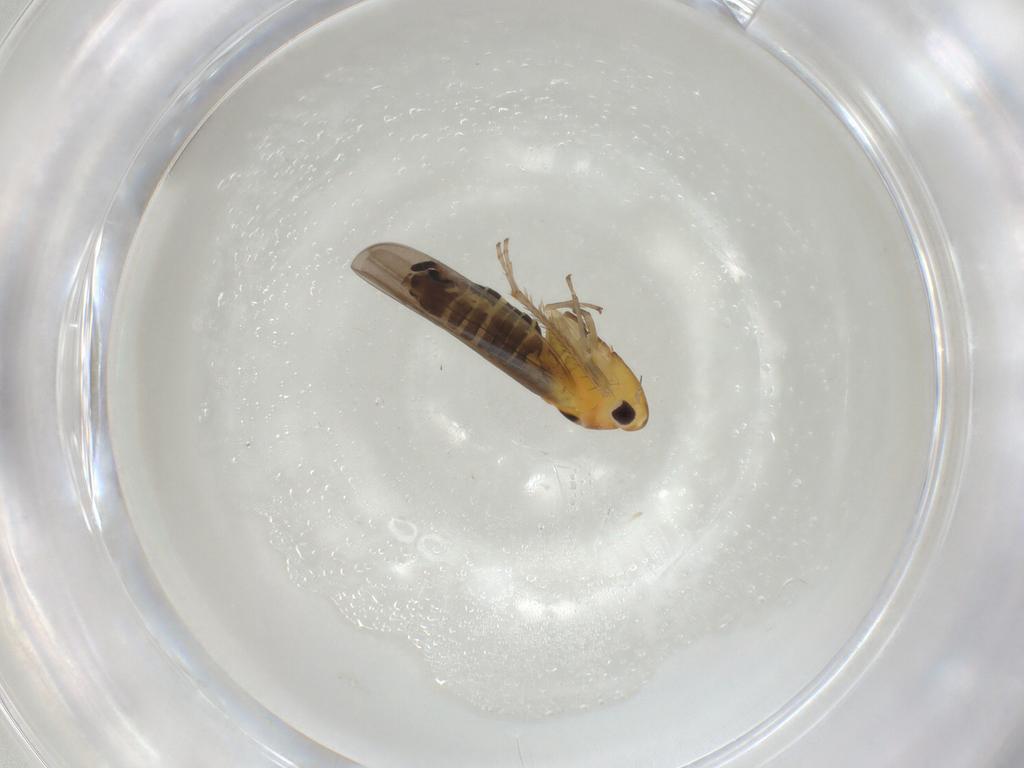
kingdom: Animalia
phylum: Arthropoda
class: Insecta
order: Hemiptera
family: Cicadellidae
